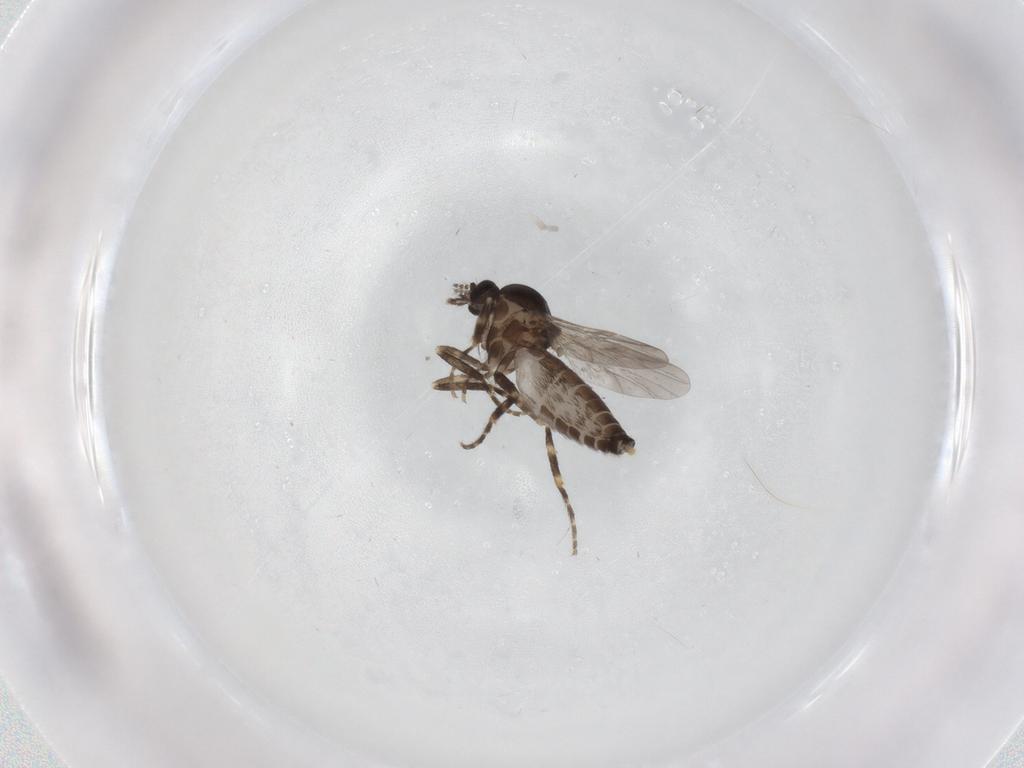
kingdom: Animalia
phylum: Arthropoda
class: Insecta
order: Diptera
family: Ceratopogonidae
